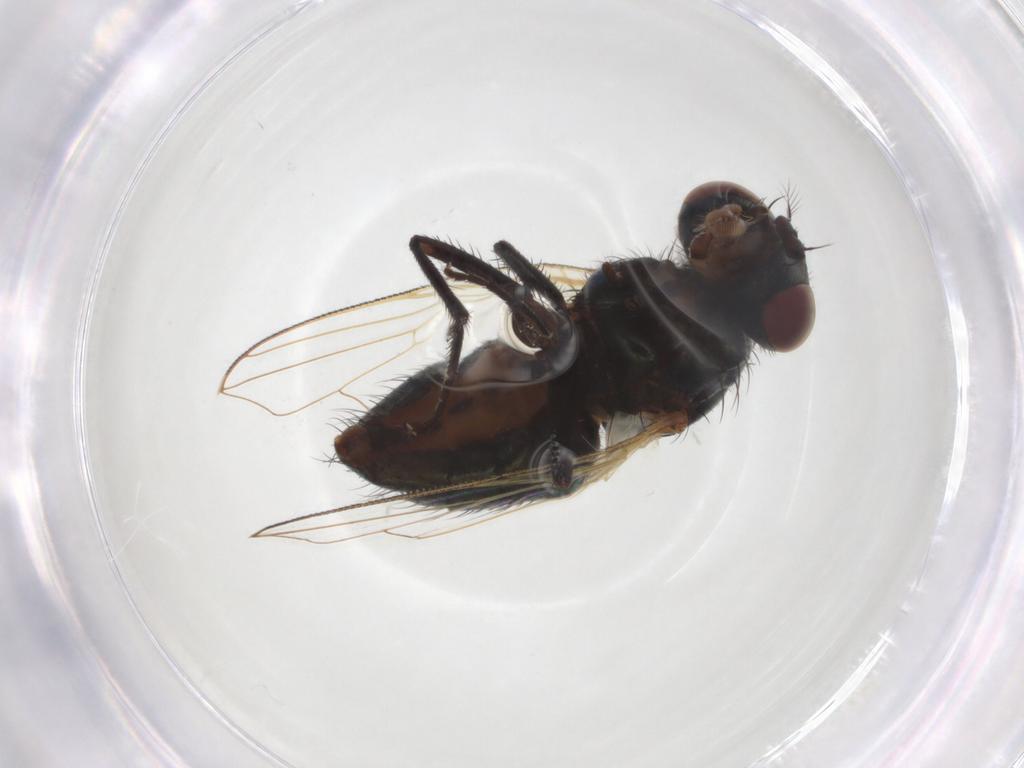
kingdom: Animalia
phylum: Arthropoda
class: Insecta
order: Diptera
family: Muscidae
